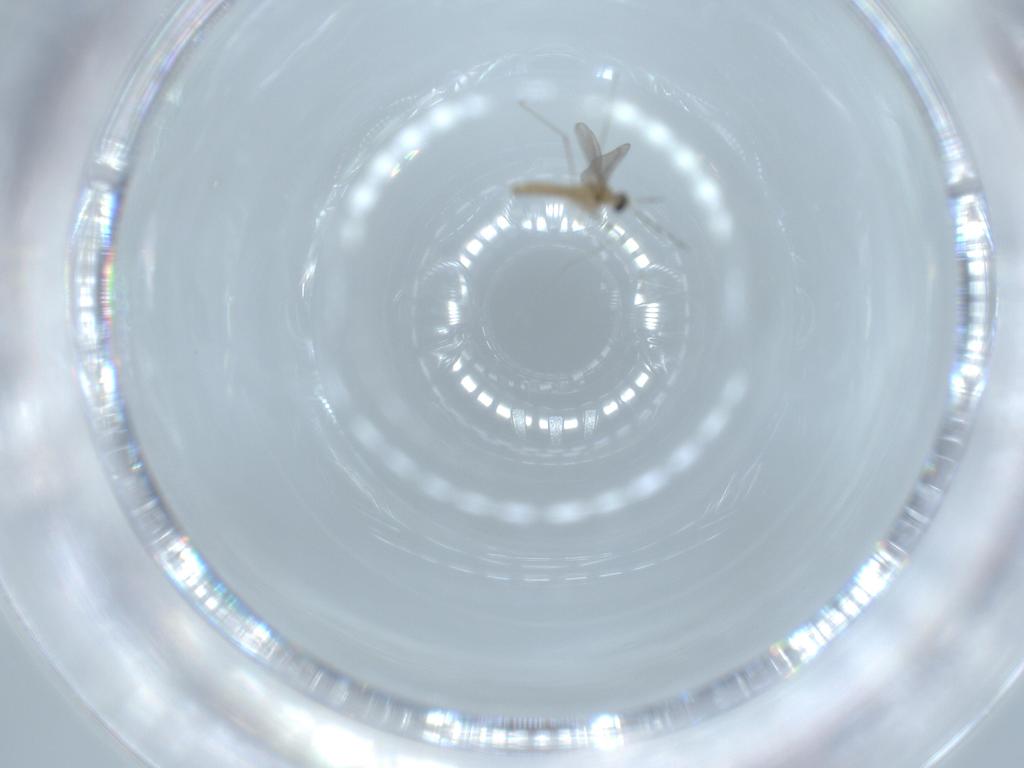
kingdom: Animalia
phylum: Arthropoda
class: Insecta
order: Diptera
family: Cecidomyiidae
